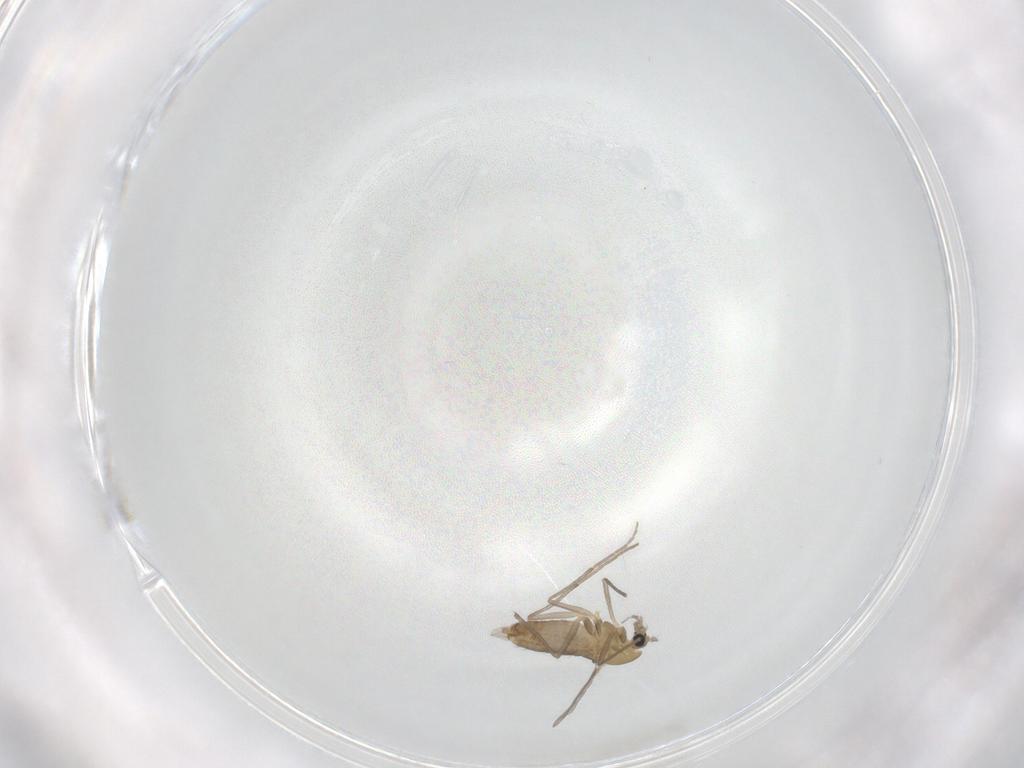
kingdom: Animalia
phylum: Arthropoda
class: Insecta
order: Diptera
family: Chironomidae
